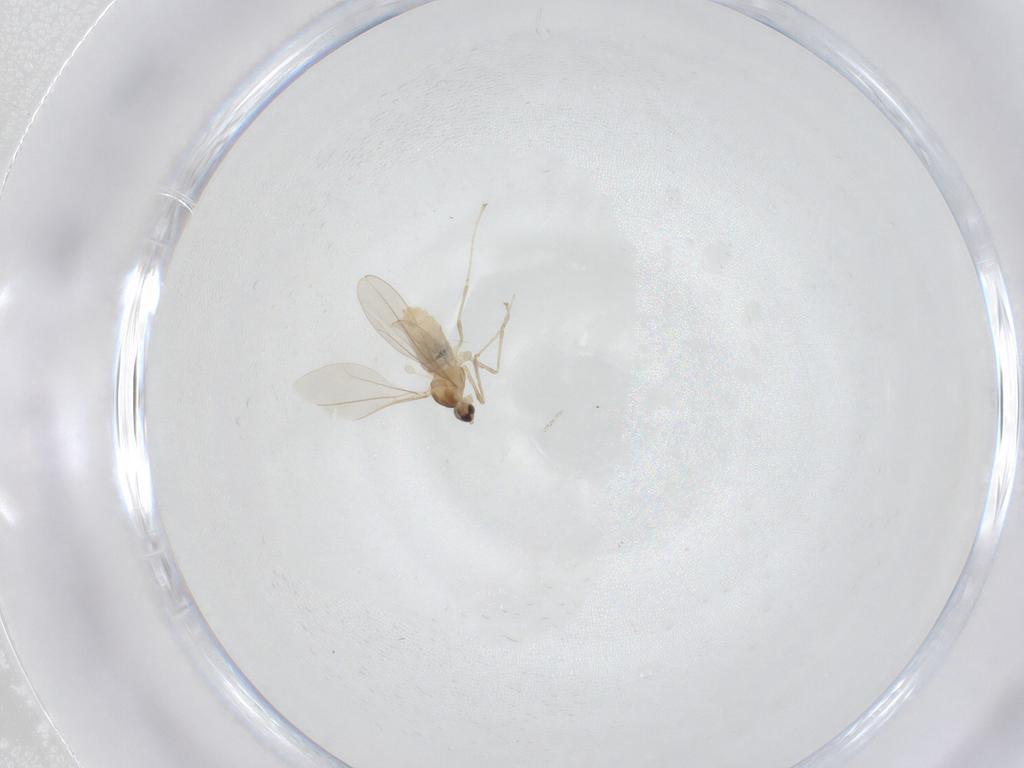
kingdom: Animalia
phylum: Arthropoda
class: Insecta
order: Diptera
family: Cecidomyiidae
